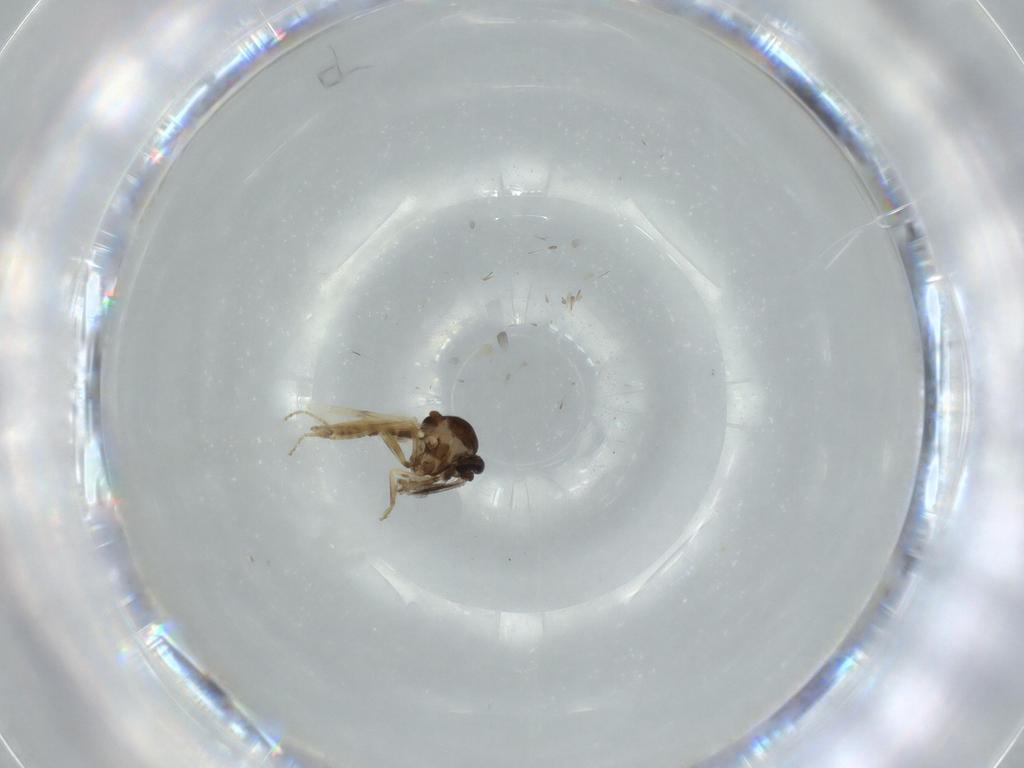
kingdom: Animalia
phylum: Arthropoda
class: Insecta
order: Diptera
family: Ceratopogonidae
